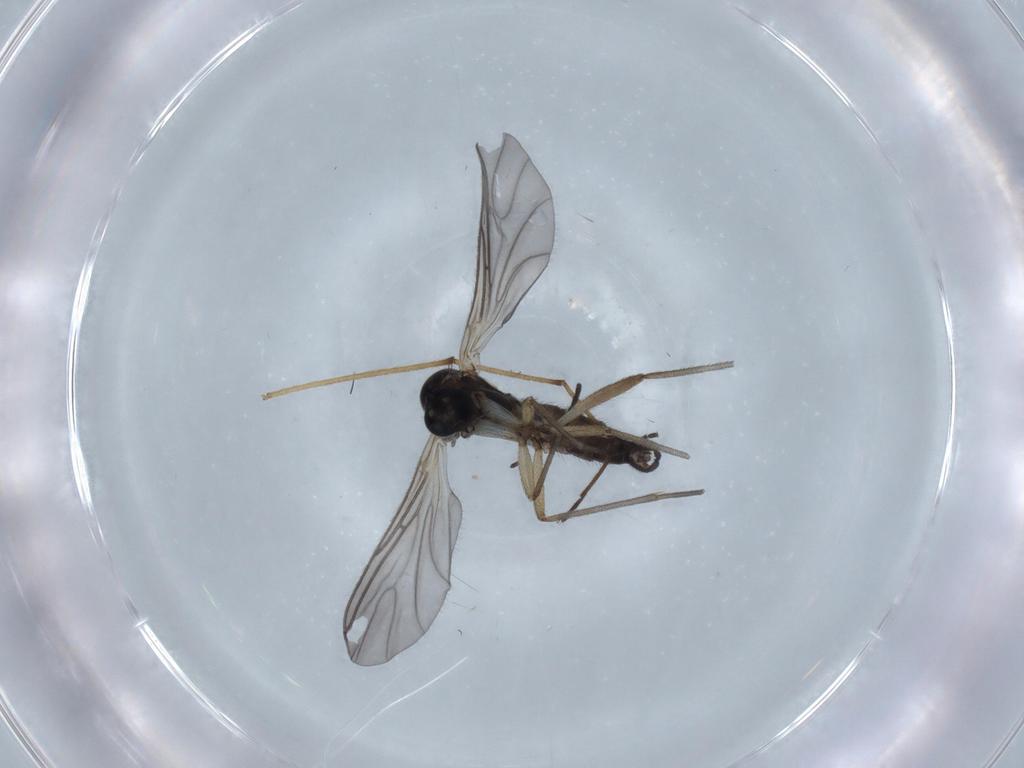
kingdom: Animalia
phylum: Arthropoda
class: Insecta
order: Diptera
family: Sciaridae
